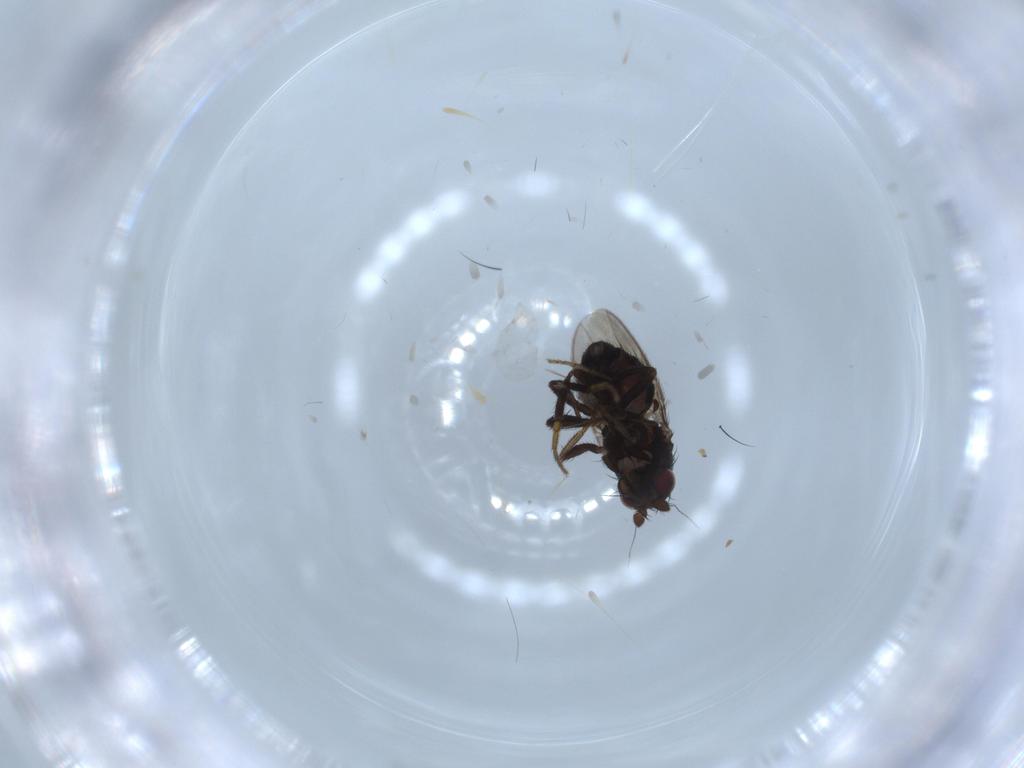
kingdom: Animalia
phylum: Arthropoda
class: Insecta
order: Diptera
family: Sphaeroceridae
